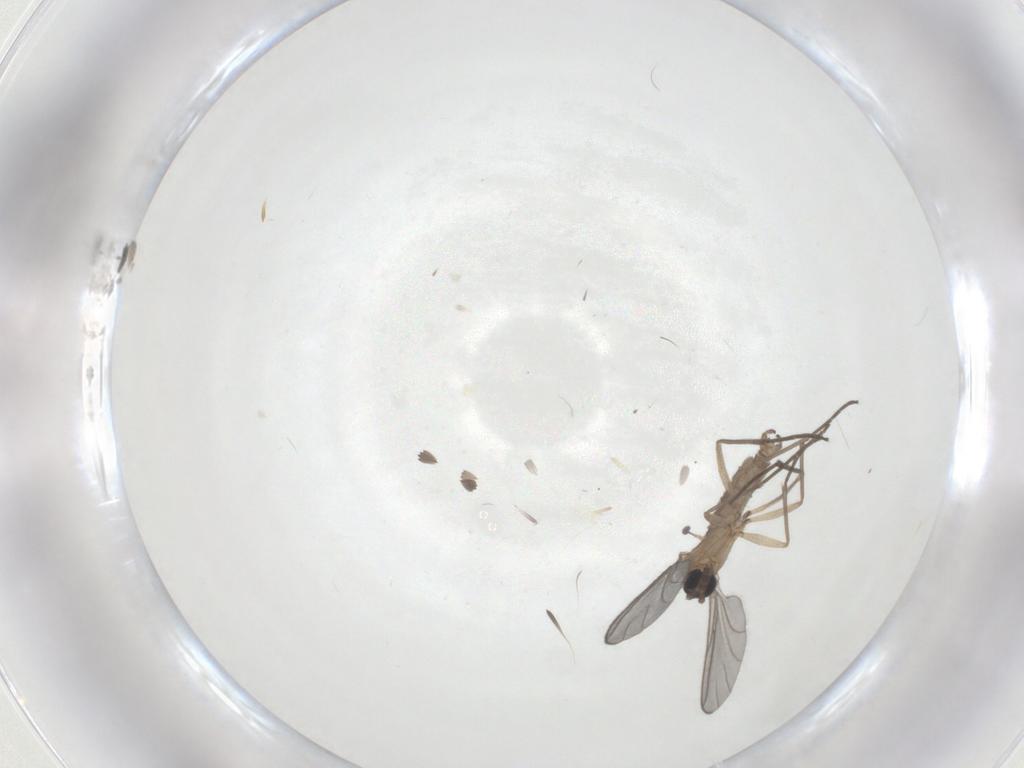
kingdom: Animalia
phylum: Arthropoda
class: Insecta
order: Diptera
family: Sciaridae
